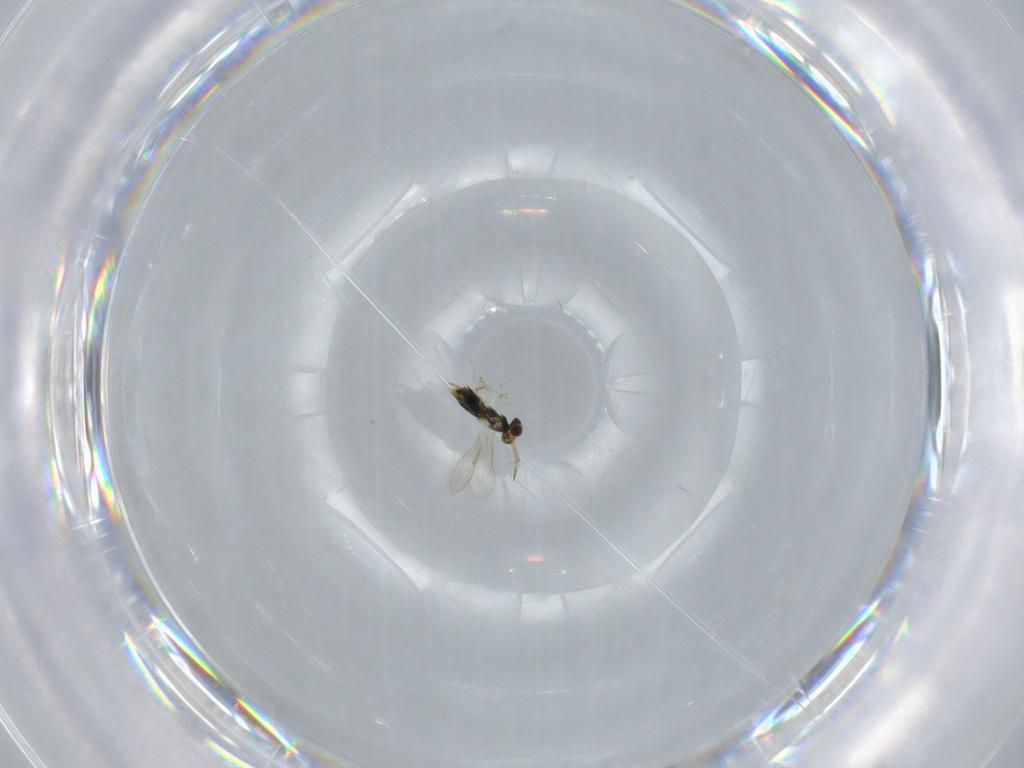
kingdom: Animalia
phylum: Arthropoda
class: Insecta
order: Hymenoptera
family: Aphelinidae
